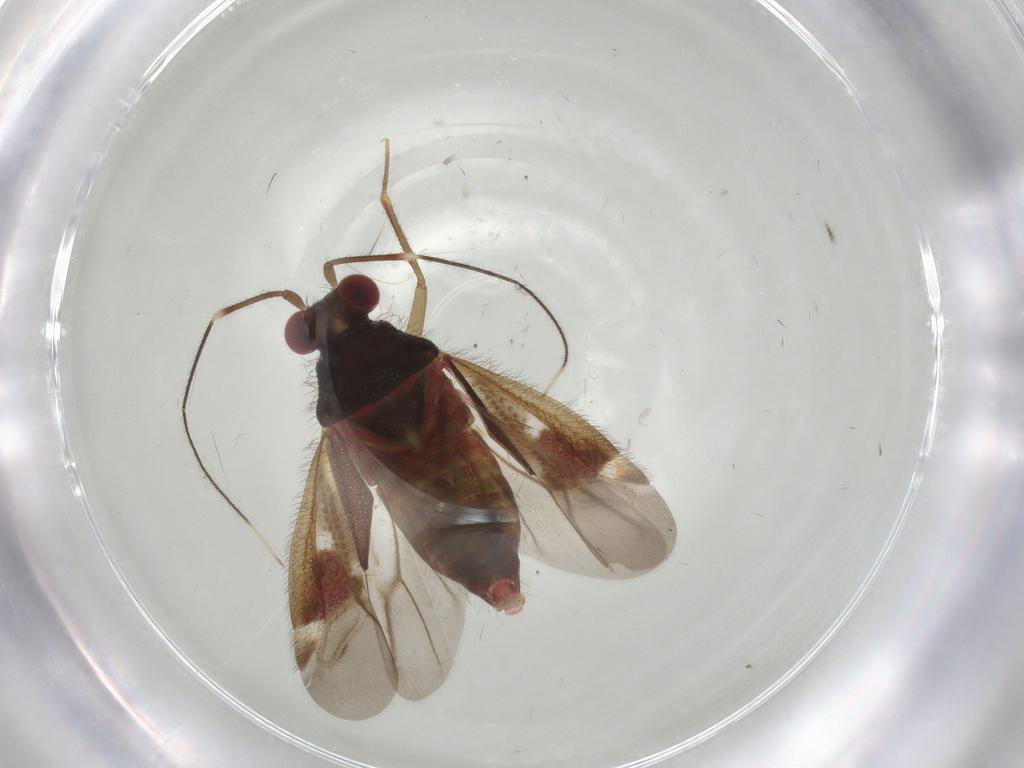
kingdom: Animalia
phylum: Arthropoda
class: Insecta
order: Hemiptera
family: Miridae
